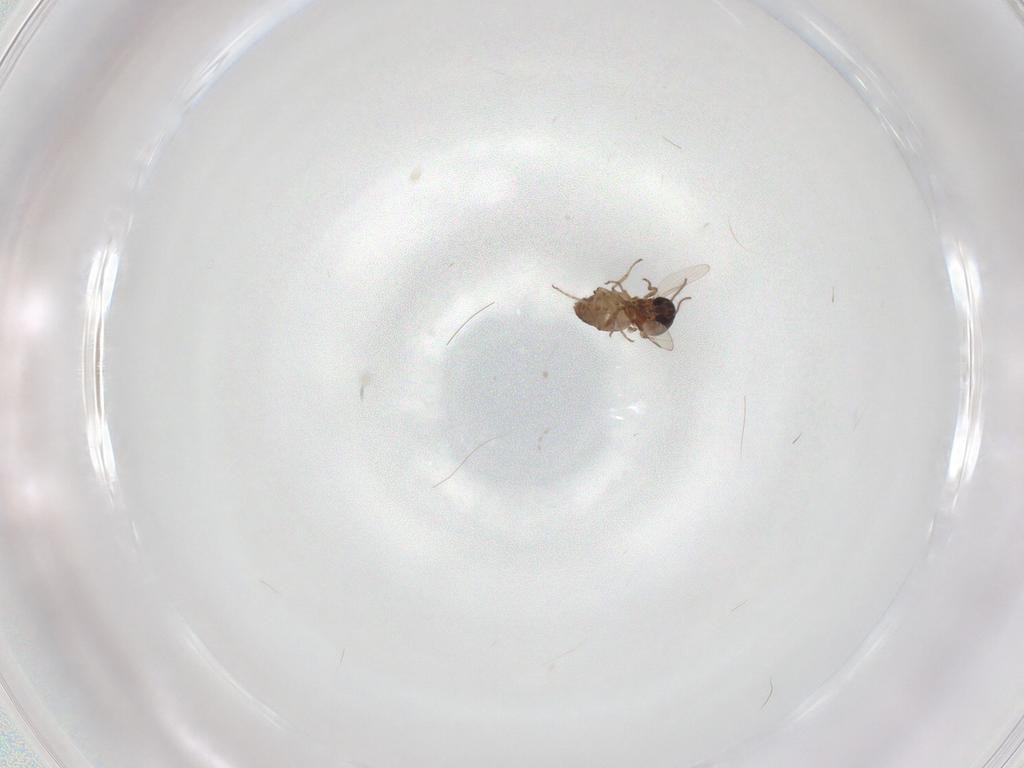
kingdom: Animalia
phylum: Arthropoda
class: Insecta
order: Diptera
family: Ceratopogonidae
